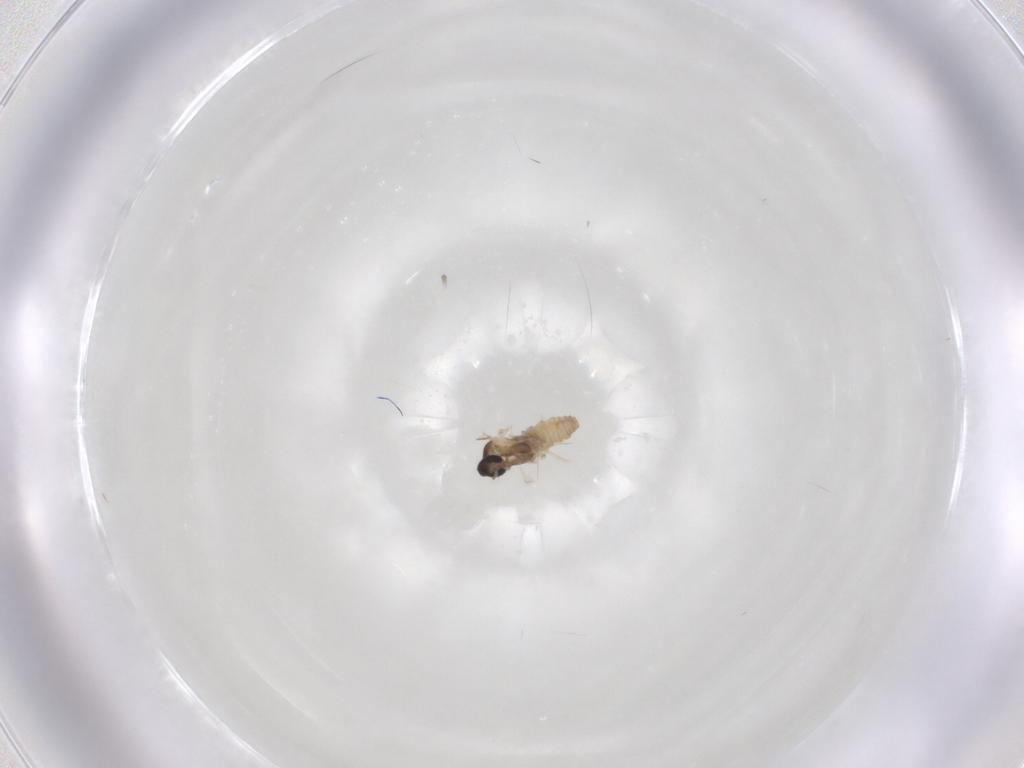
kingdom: Animalia
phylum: Arthropoda
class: Insecta
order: Diptera
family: Cecidomyiidae
